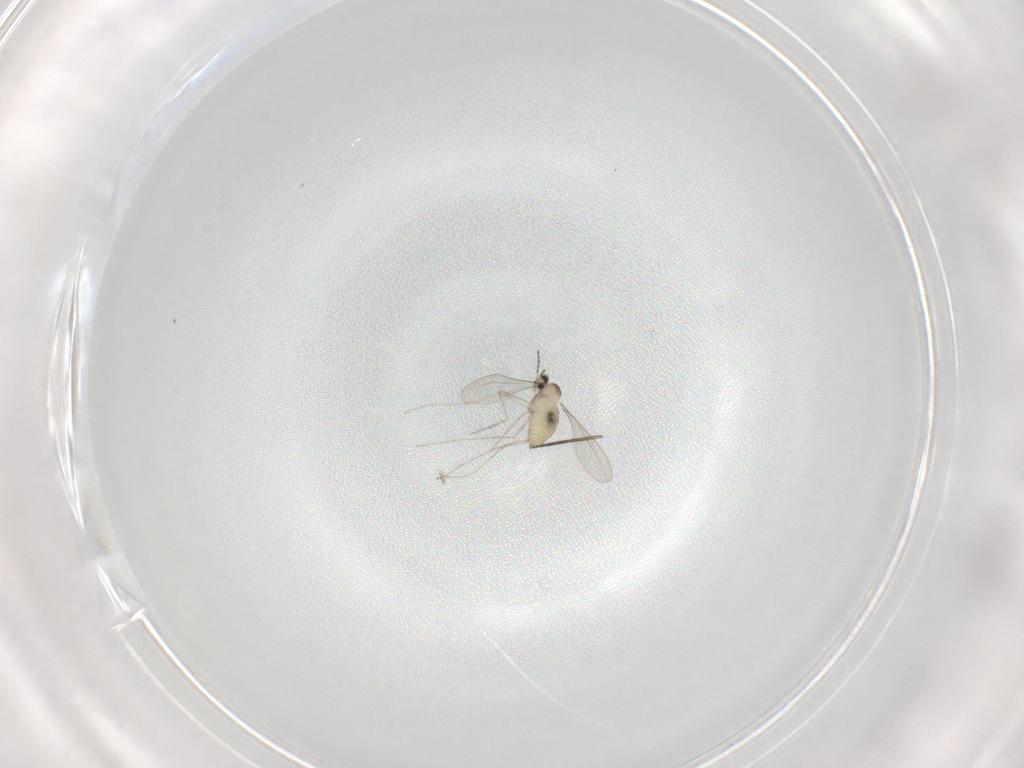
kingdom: Animalia
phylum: Arthropoda
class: Insecta
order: Diptera
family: Cecidomyiidae
